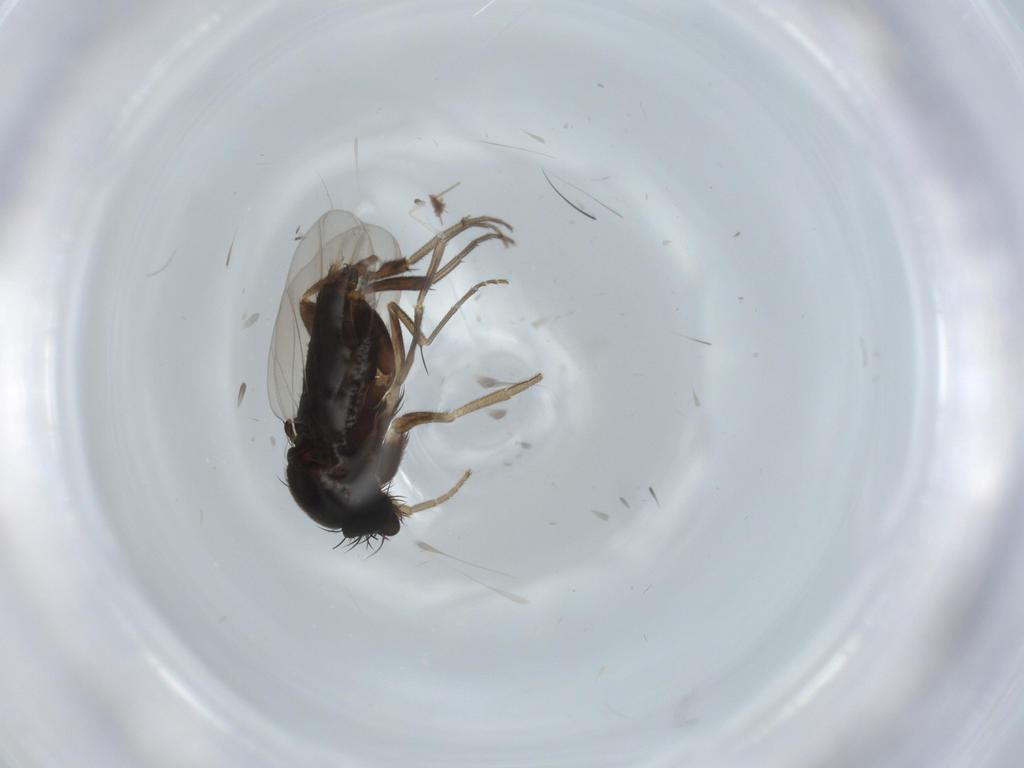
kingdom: Animalia
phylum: Arthropoda
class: Insecta
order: Diptera
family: Phoridae
